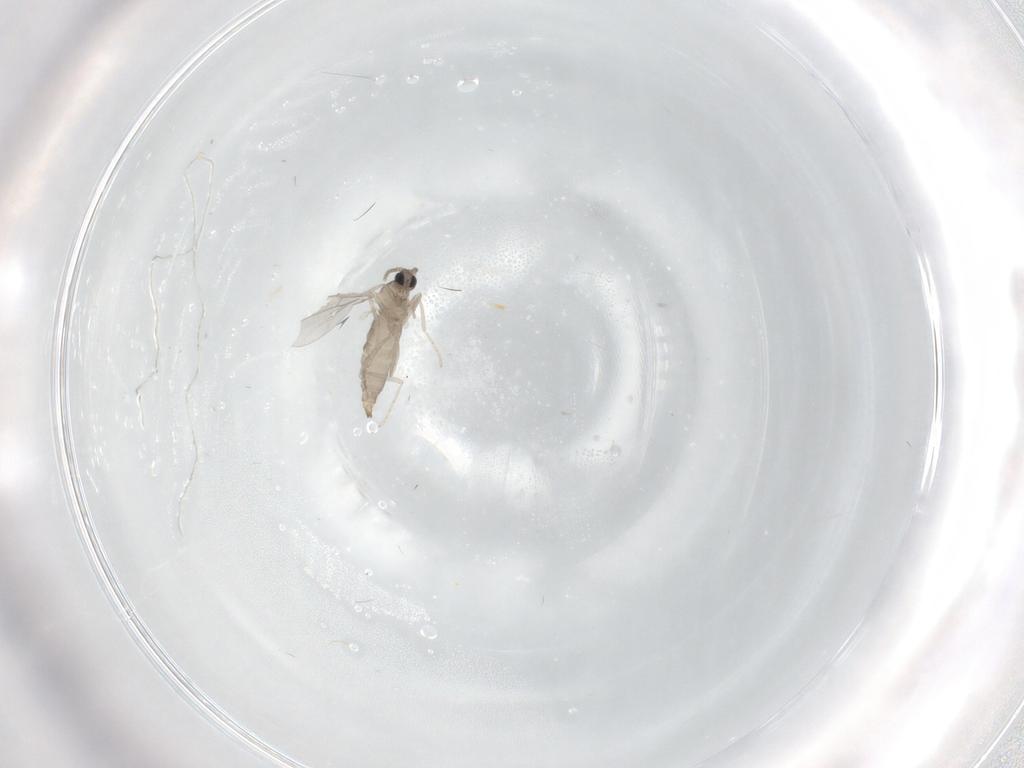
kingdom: Animalia
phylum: Arthropoda
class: Insecta
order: Diptera
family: Cecidomyiidae
